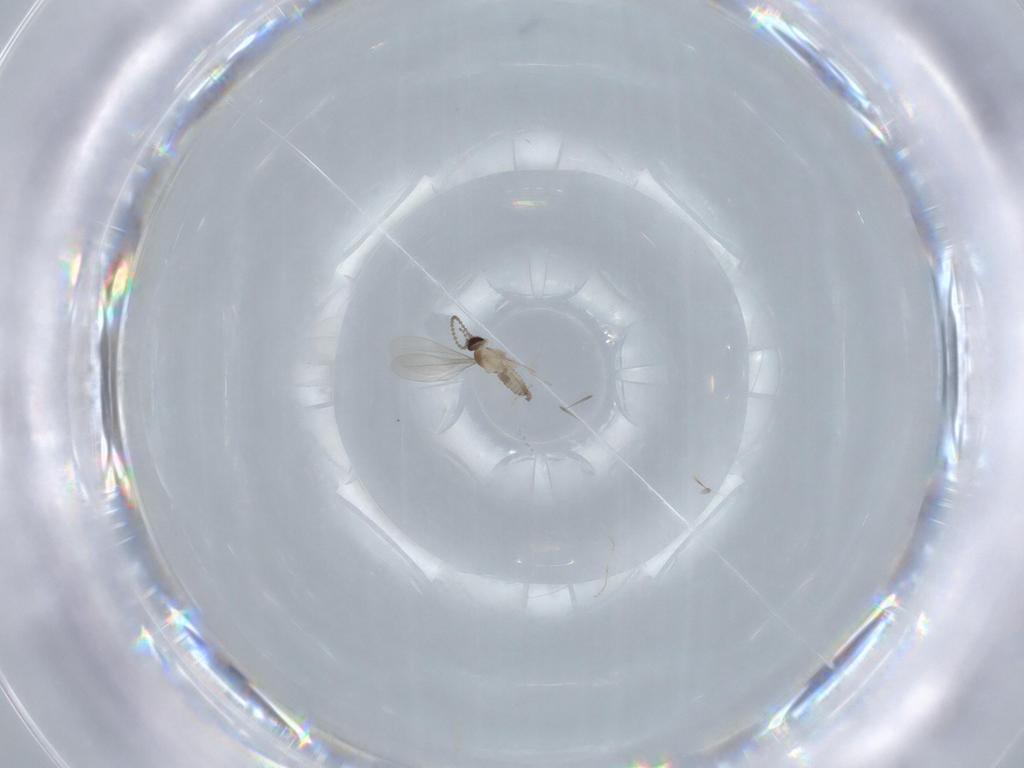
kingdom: Animalia
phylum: Arthropoda
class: Insecta
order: Diptera
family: Cecidomyiidae
